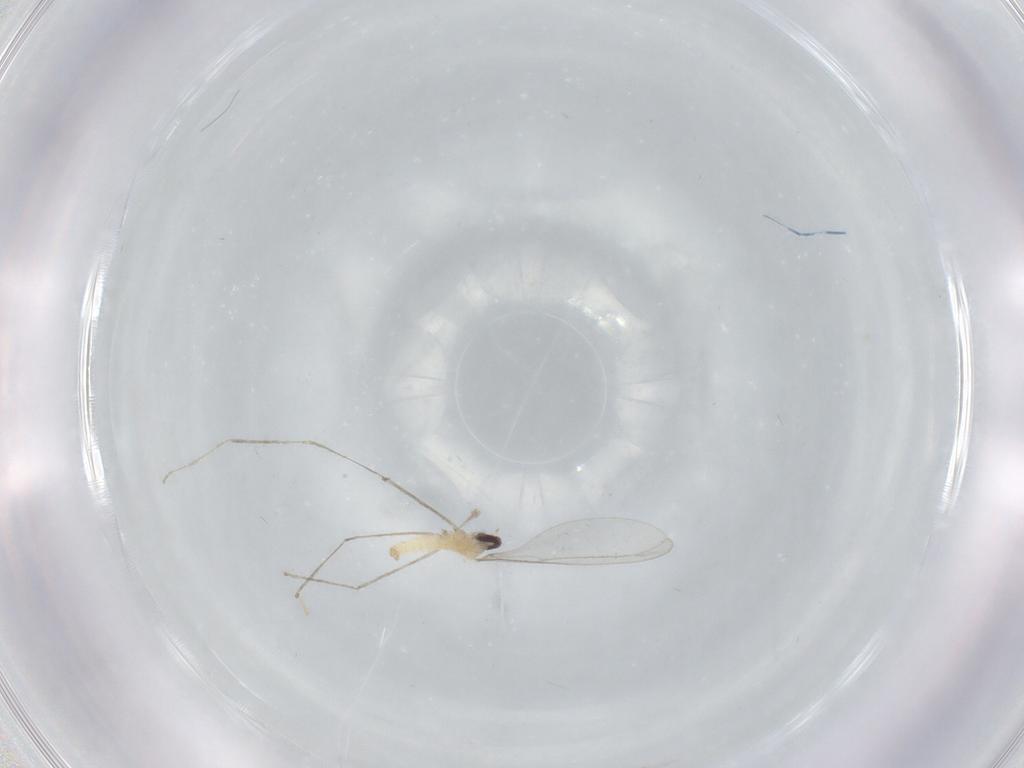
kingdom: Animalia
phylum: Arthropoda
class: Insecta
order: Diptera
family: Cecidomyiidae
